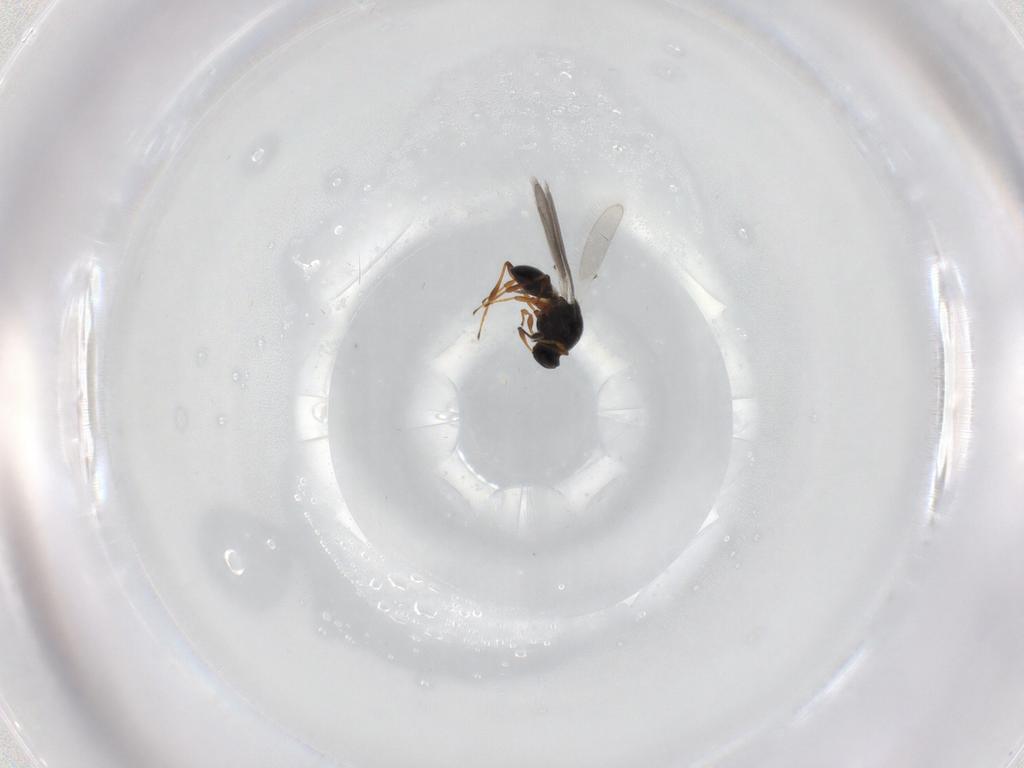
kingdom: Animalia
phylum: Arthropoda
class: Insecta
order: Hymenoptera
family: Platygastridae
